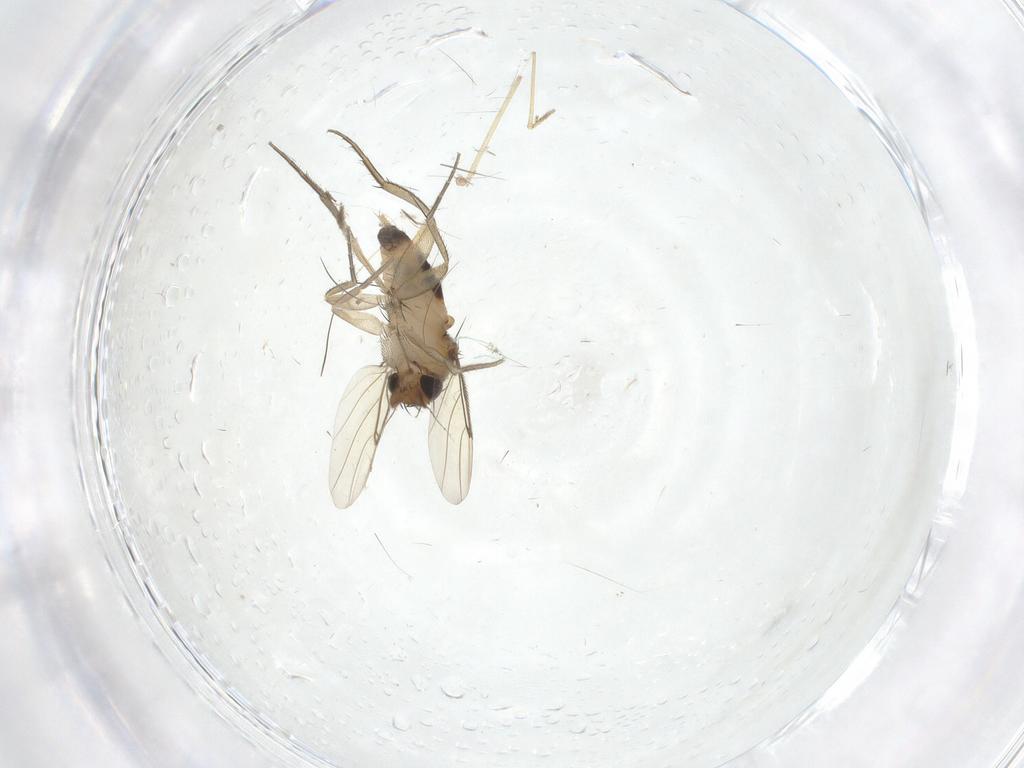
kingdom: Animalia
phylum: Arthropoda
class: Insecta
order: Diptera
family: Phoridae
